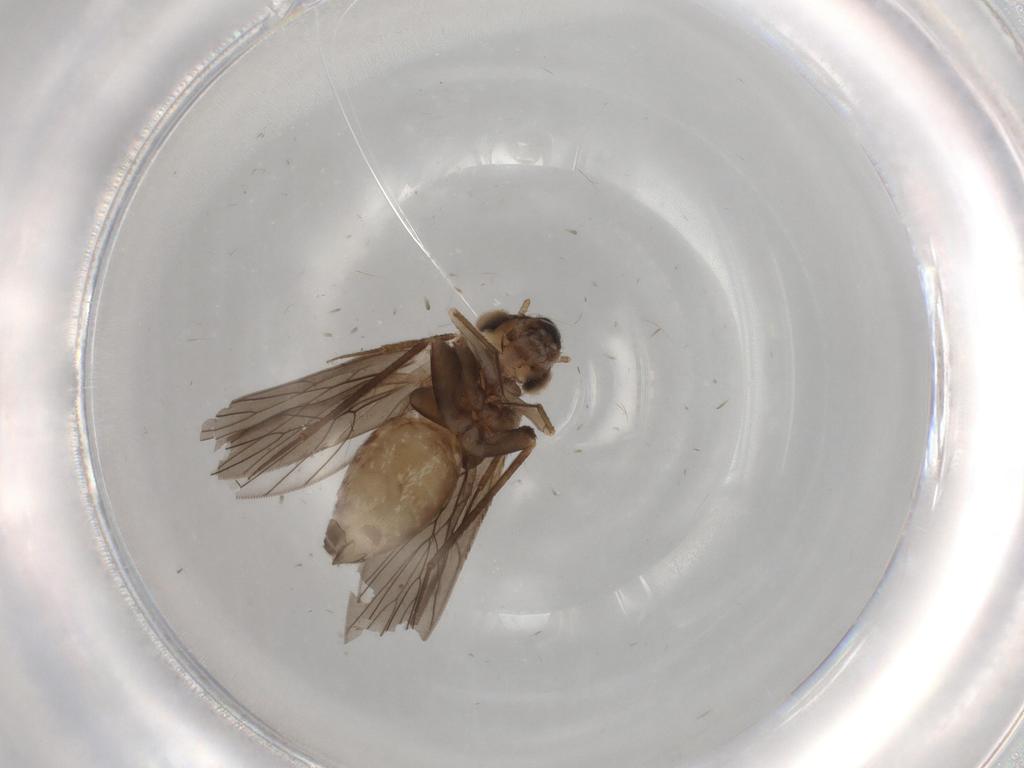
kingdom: Animalia
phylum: Arthropoda
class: Insecta
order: Psocodea
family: Lepidopsocidae
